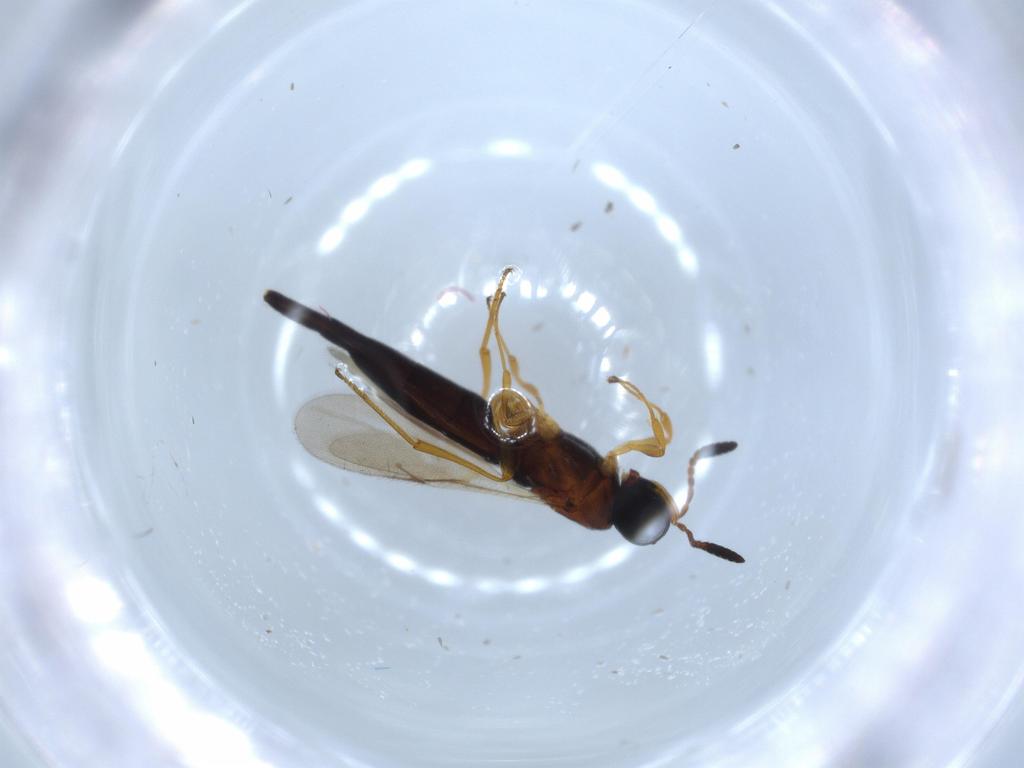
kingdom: Animalia
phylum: Arthropoda
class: Insecta
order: Hymenoptera
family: Scelionidae
